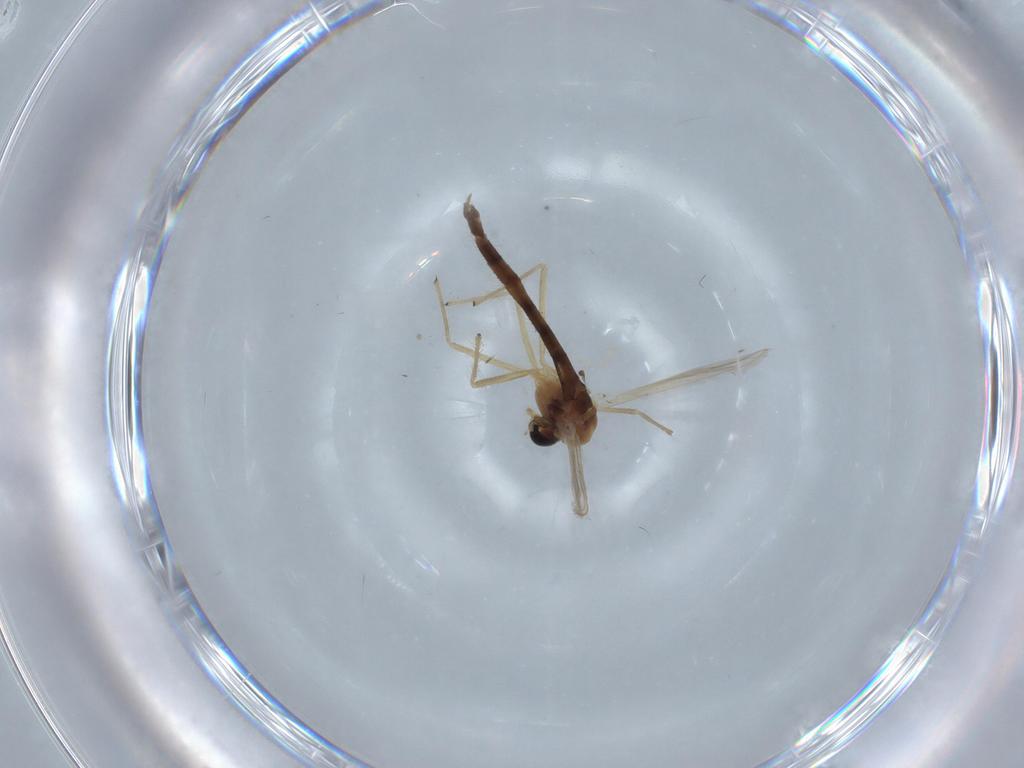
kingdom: Animalia
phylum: Arthropoda
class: Insecta
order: Diptera
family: Chironomidae
